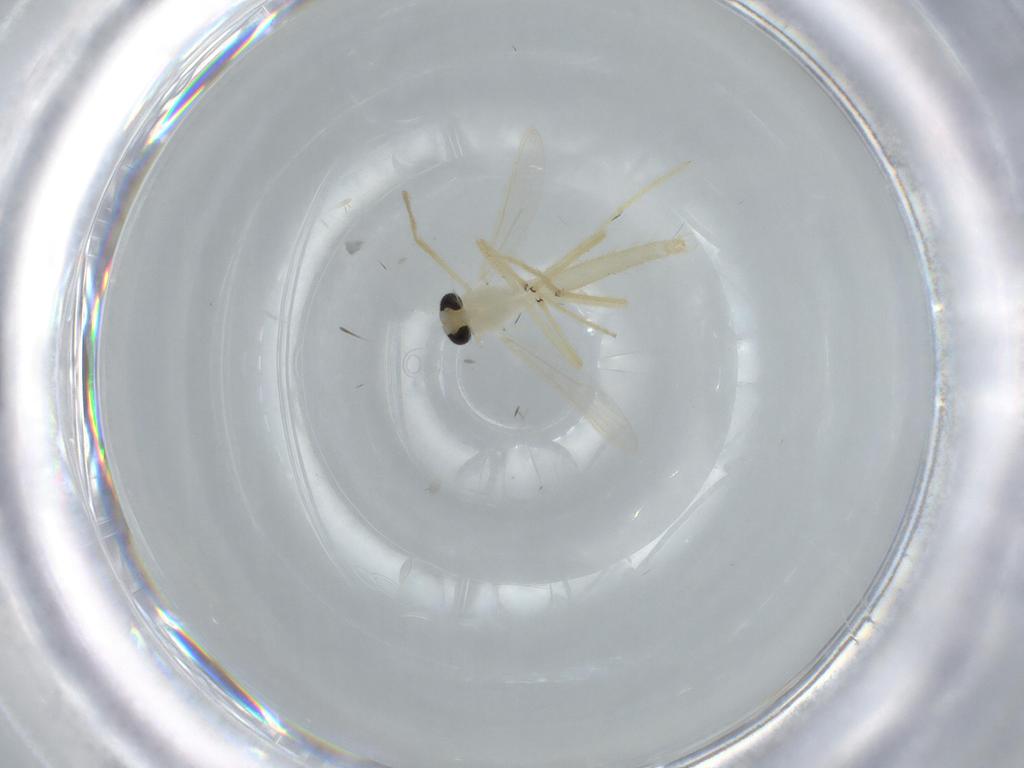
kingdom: Animalia
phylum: Arthropoda
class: Insecta
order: Diptera
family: Chironomidae
